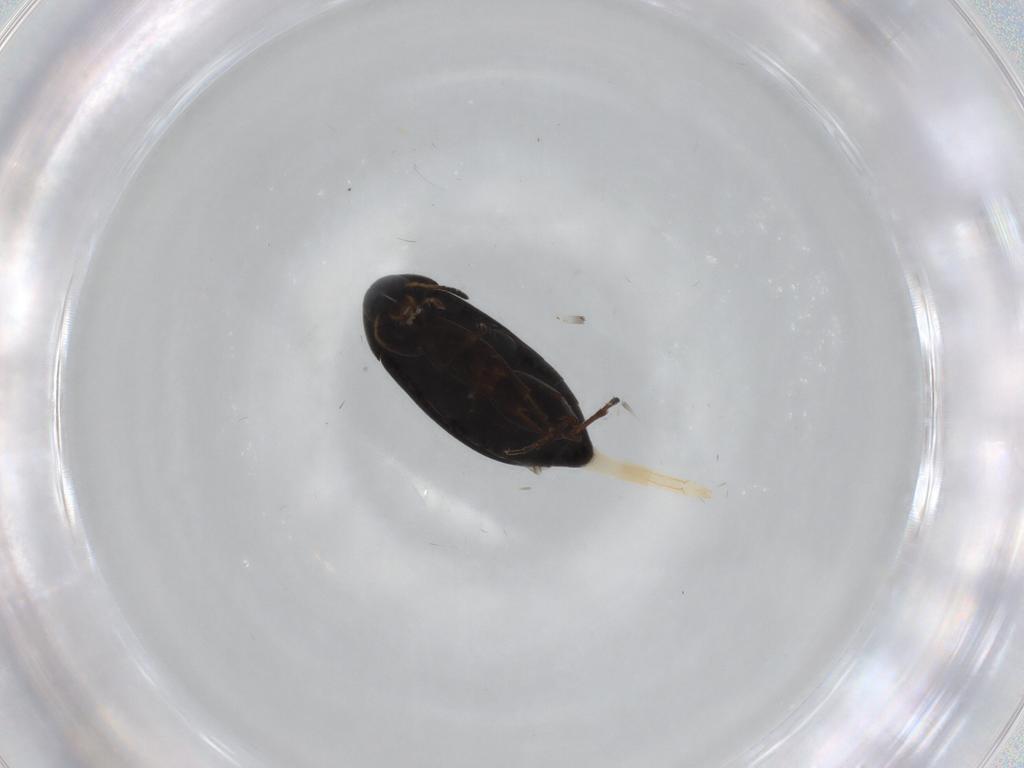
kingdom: Animalia
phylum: Arthropoda
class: Insecta
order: Coleoptera
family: Scraptiidae
